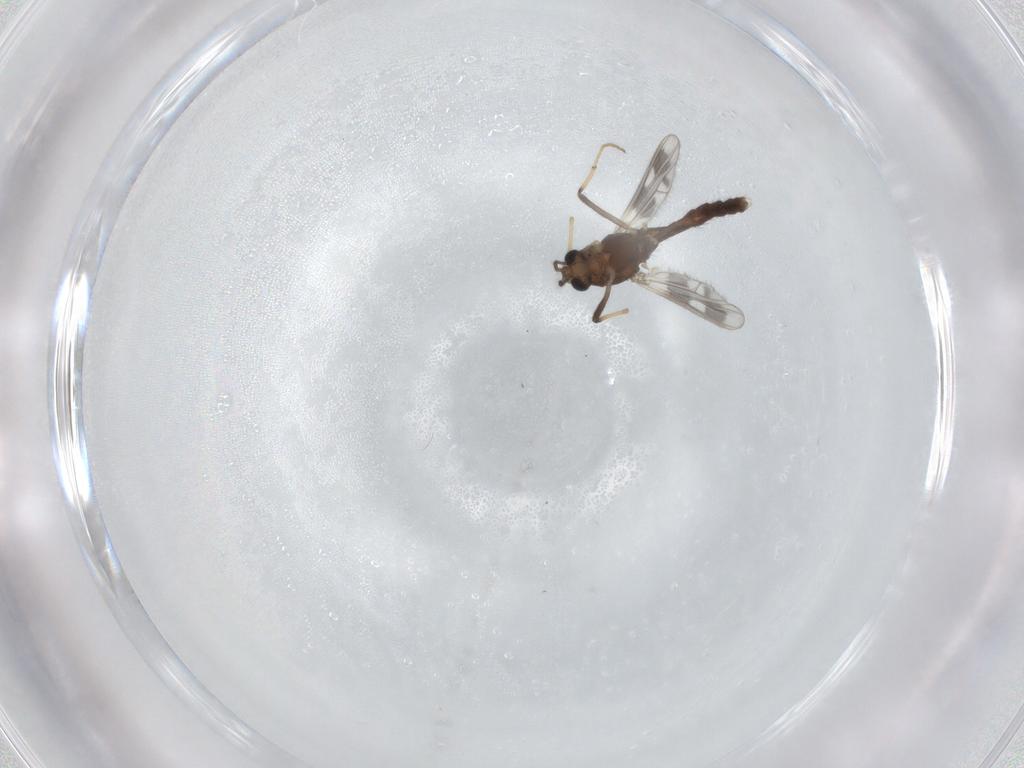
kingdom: Animalia
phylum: Arthropoda
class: Insecta
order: Diptera
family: Chironomidae
